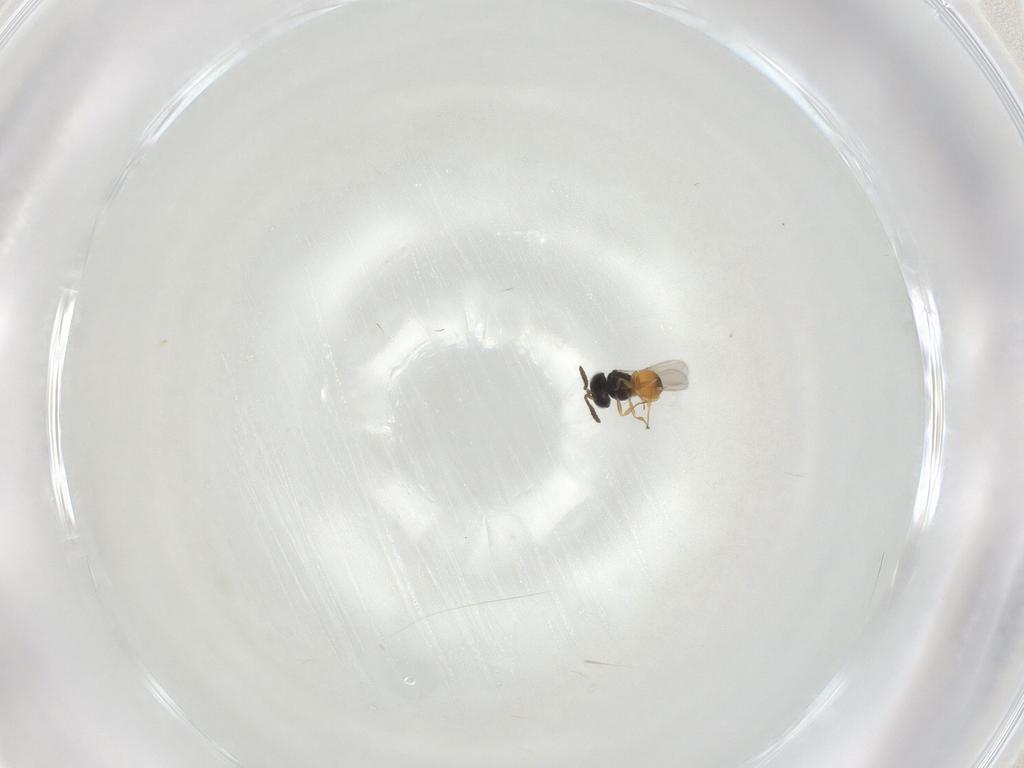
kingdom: Animalia
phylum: Arthropoda
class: Insecta
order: Hymenoptera
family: Scelionidae
